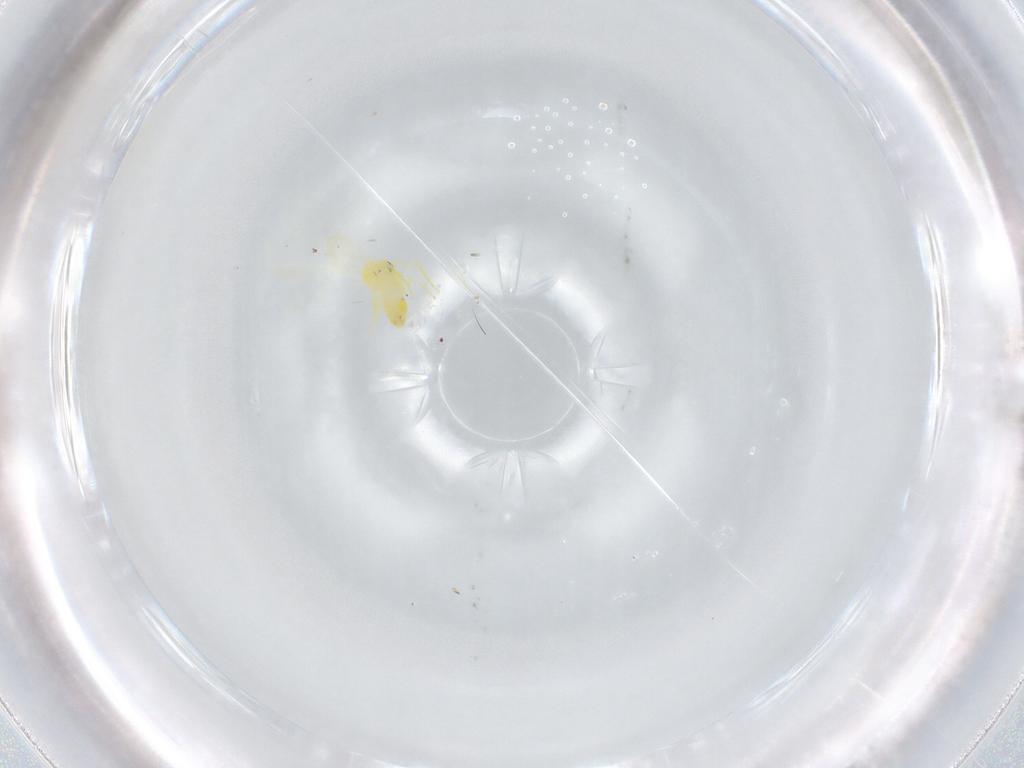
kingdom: Animalia
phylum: Arthropoda
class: Insecta
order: Hemiptera
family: Aleyrodidae
